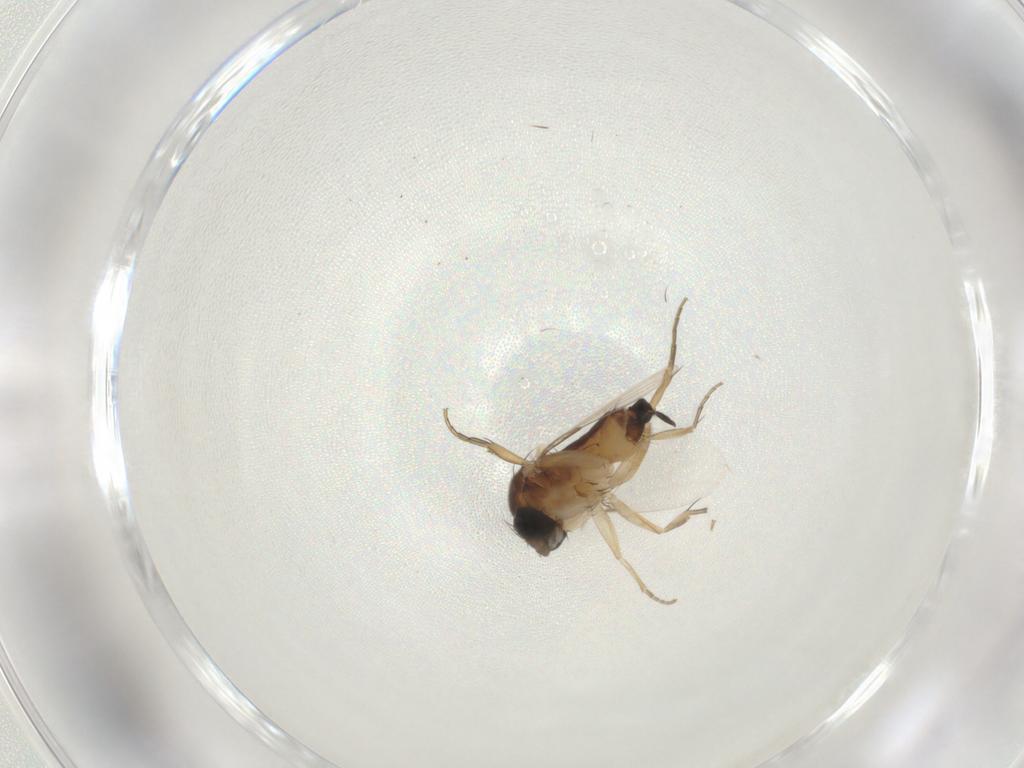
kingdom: Animalia
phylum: Arthropoda
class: Insecta
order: Diptera
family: Phoridae
